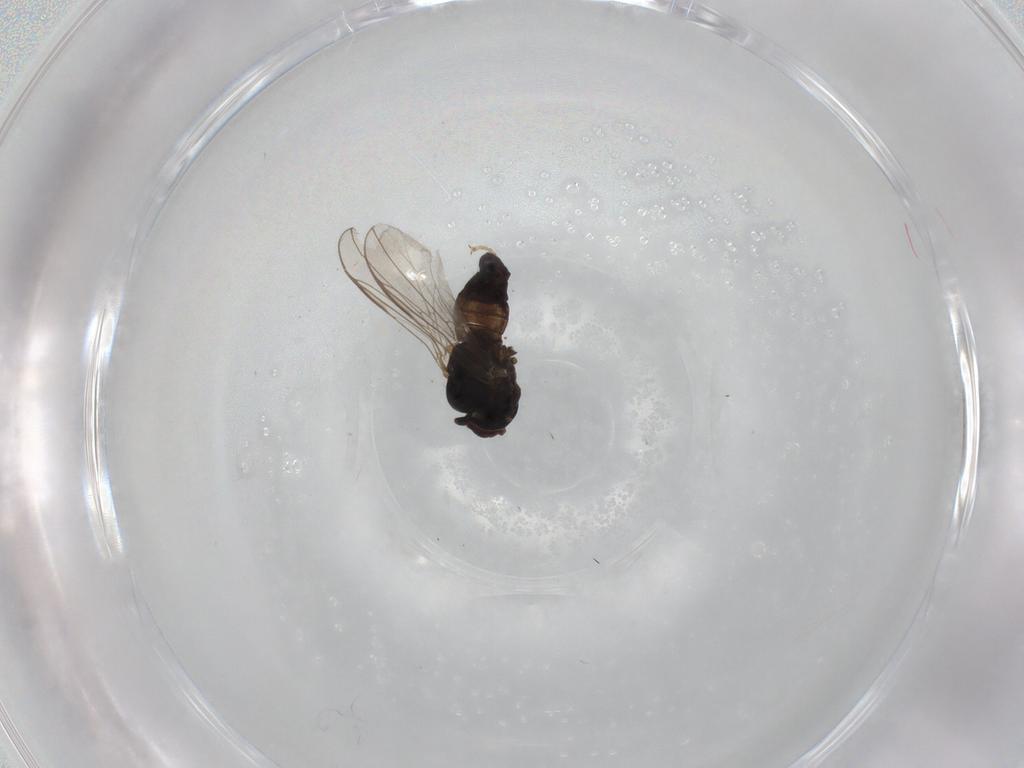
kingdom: Animalia
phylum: Arthropoda
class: Insecta
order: Diptera
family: Pipunculidae
